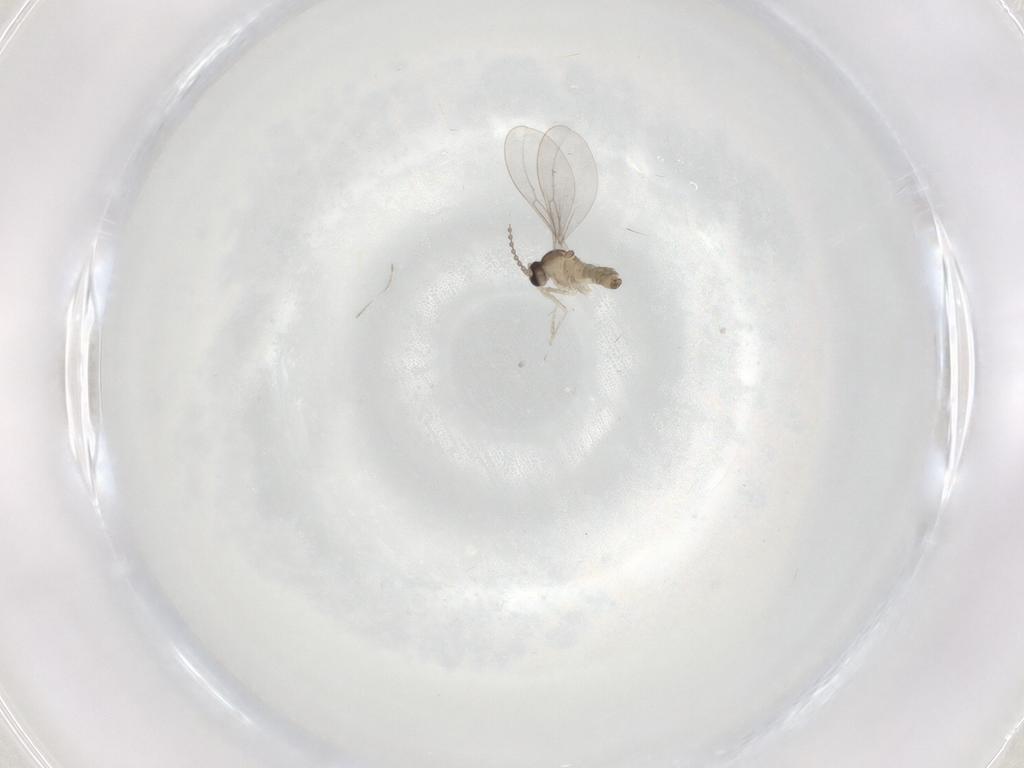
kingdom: Animalia
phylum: Arthropoda
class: Insecta
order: Diptera
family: Cecidomyiidae
